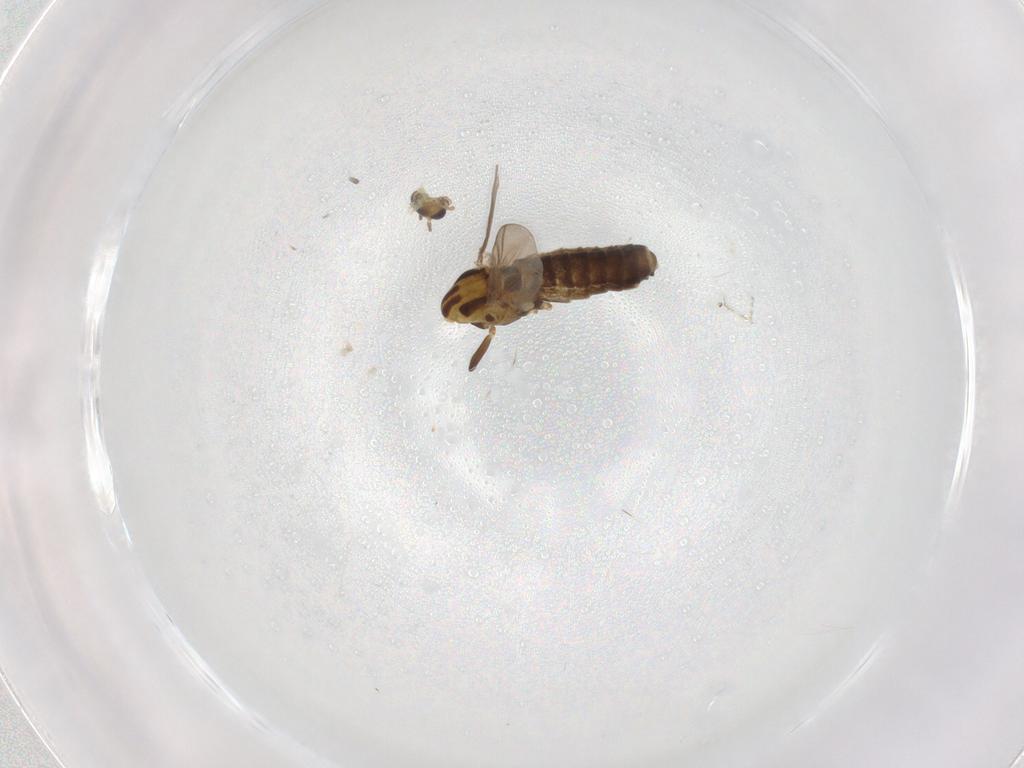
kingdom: Animalia
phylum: Arthropoda
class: Insecta
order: Diptera
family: Chironomidae
